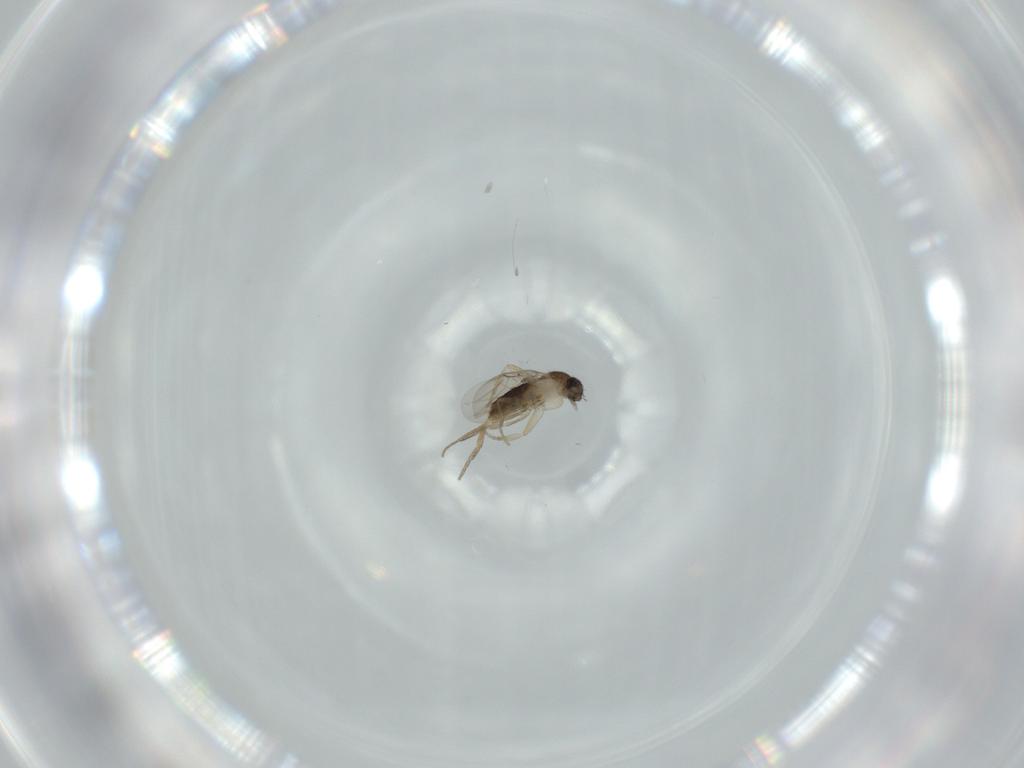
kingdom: Animalia
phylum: Arthropoda
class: Insecta
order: Diptera
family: Phoridae
